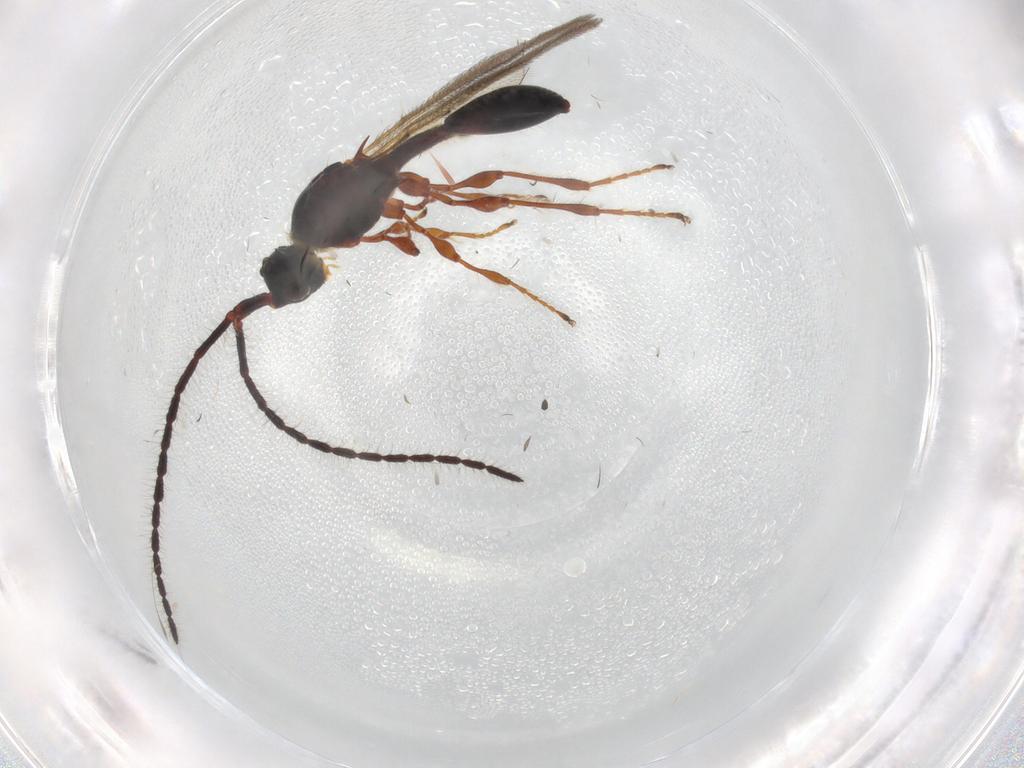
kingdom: Animalia
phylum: Arthropoda
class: Insecta
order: Hymenoptera
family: Diapriidae
